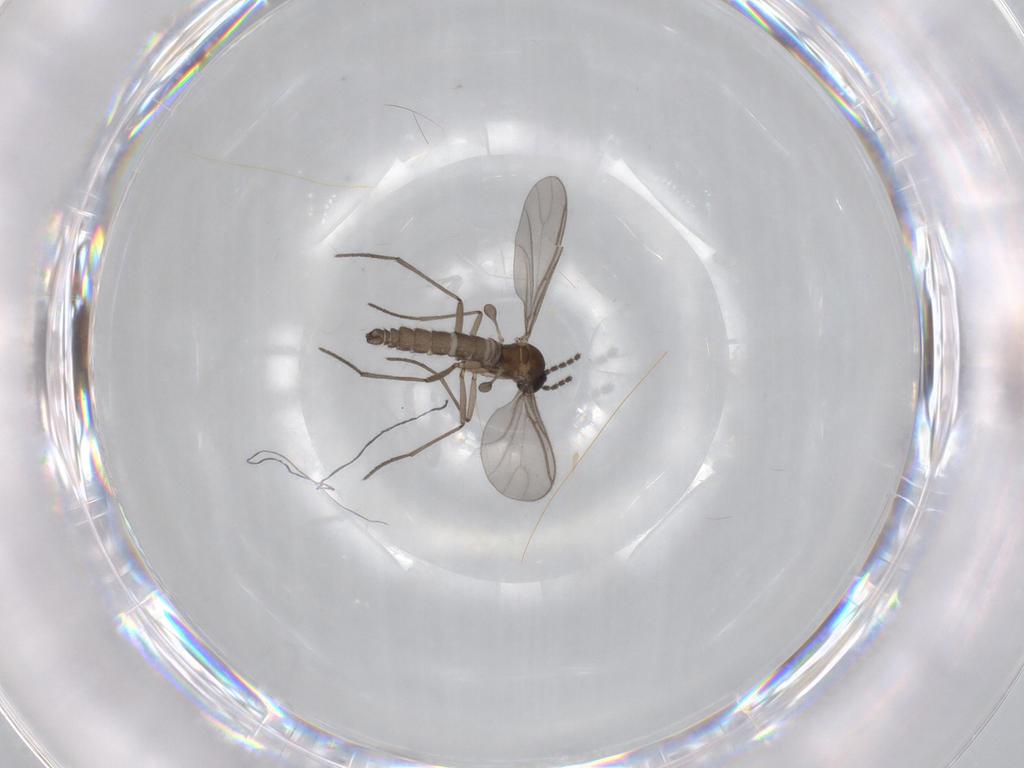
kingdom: Animalia
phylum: Arthropoda
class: Insecta
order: Diptera
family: Sciaridae
